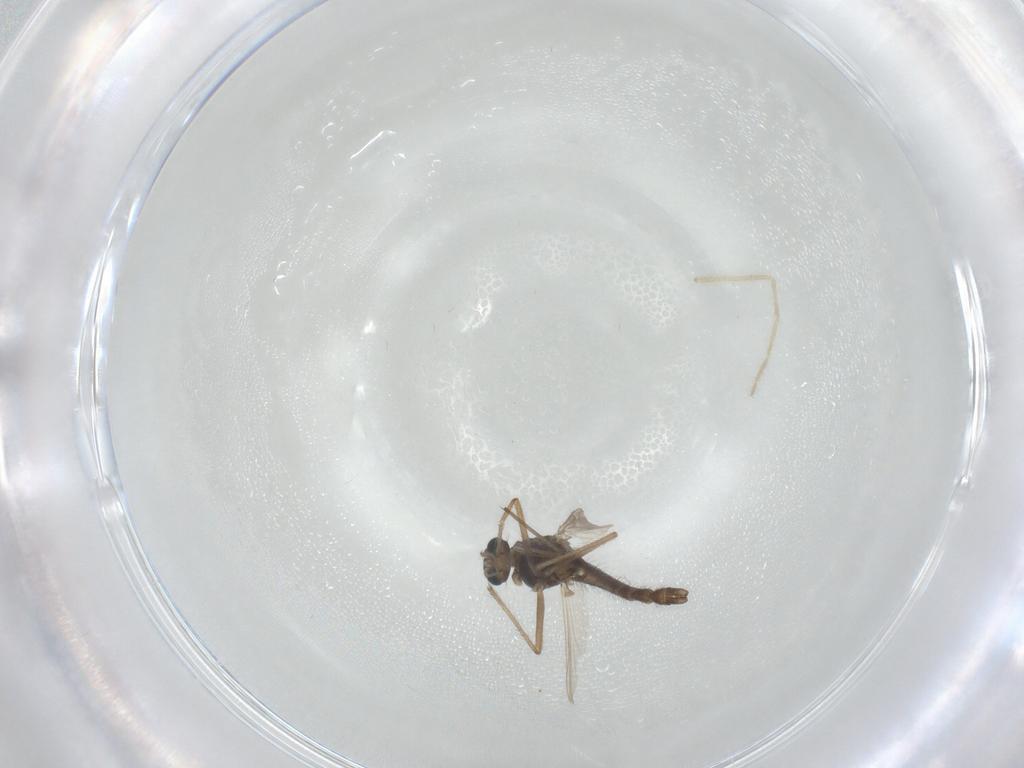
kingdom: Animalia
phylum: Arthropoda
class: Insecta
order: Diptera
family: Chironomidae
